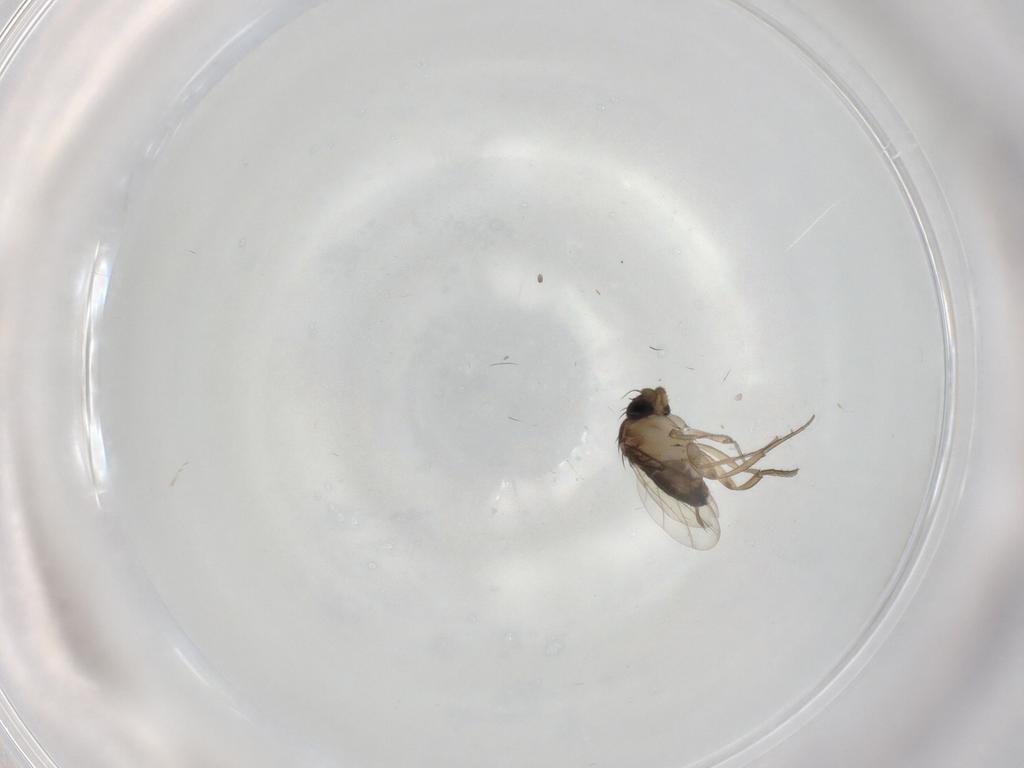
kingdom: Animalia
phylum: Arthropoda
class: Insecta
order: Diptera
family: Phoridae
